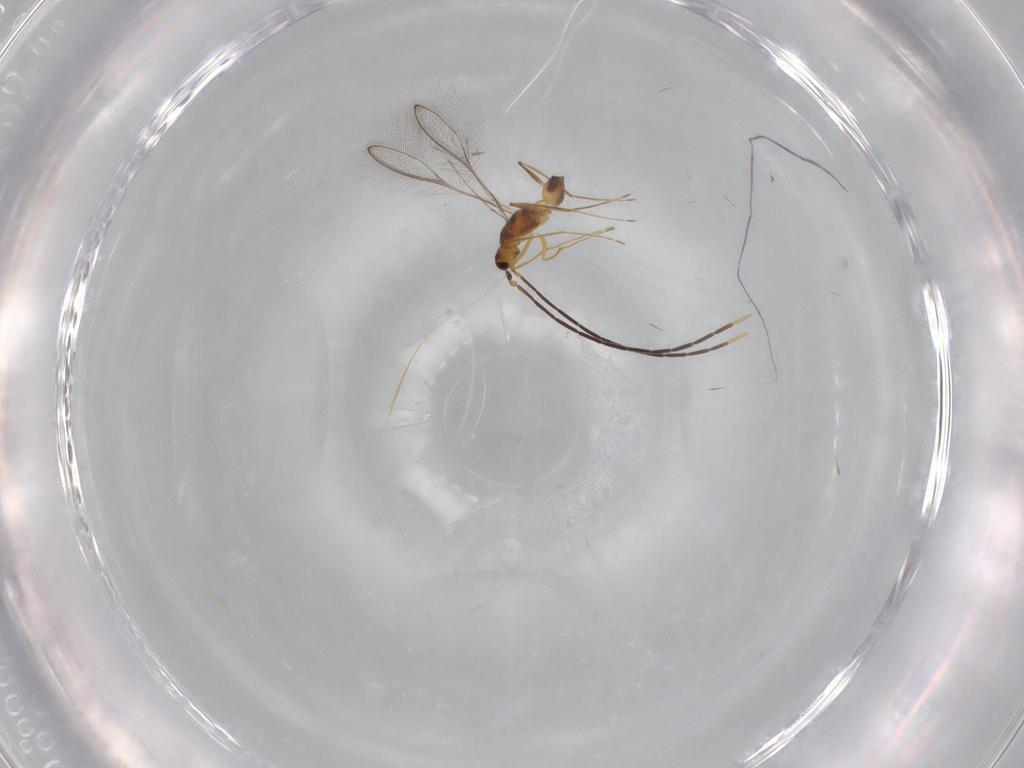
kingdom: Animalia
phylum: Arthropoda
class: Insecta
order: Hymenoptera
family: Mymaridae
